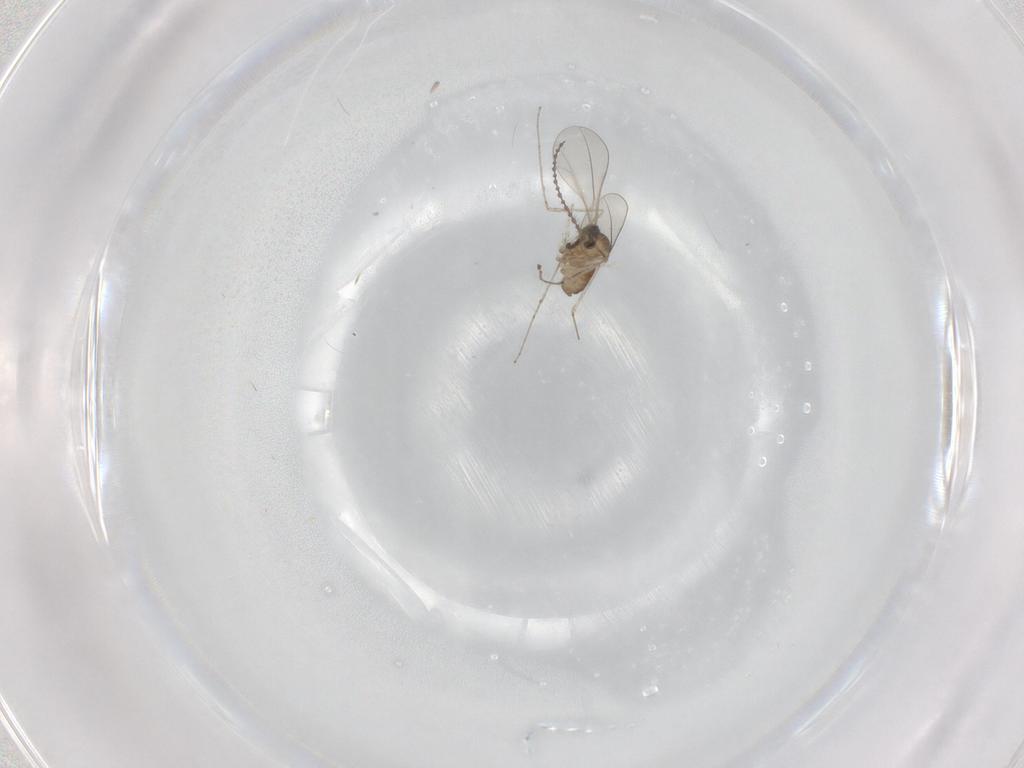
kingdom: Animalia
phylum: Arthropoda
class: Insecta
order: Diptera
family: Cecidomyiidae
